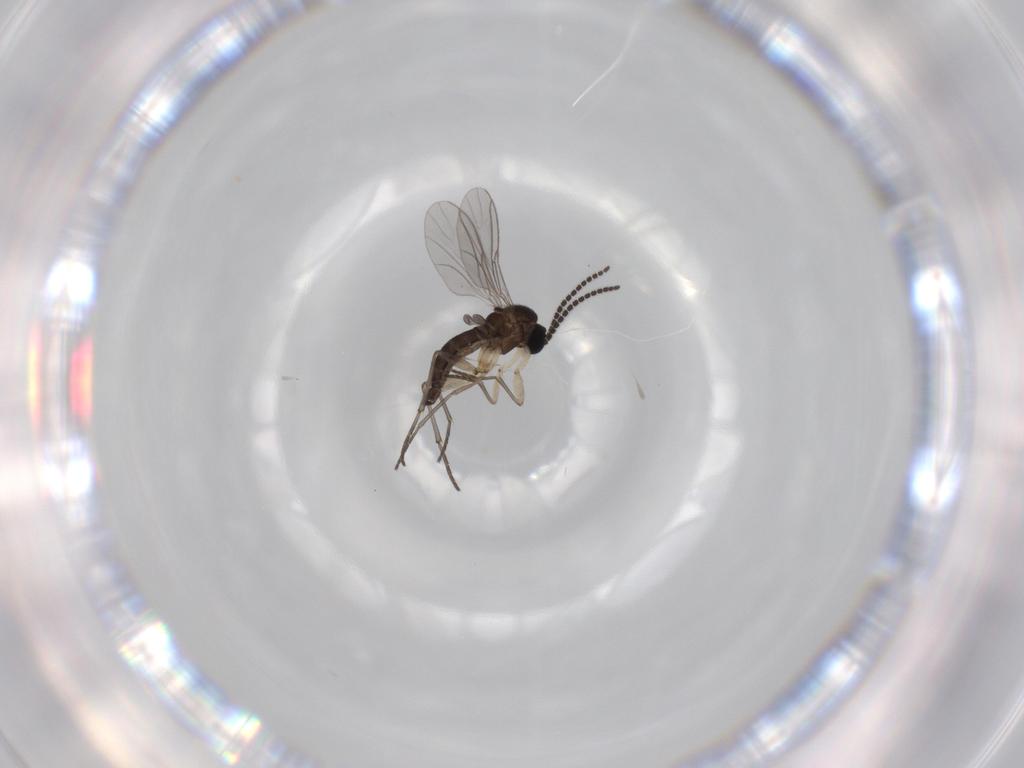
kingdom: Animalia
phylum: Arthropoda
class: Insecta
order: Diptera
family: Sciaridae
